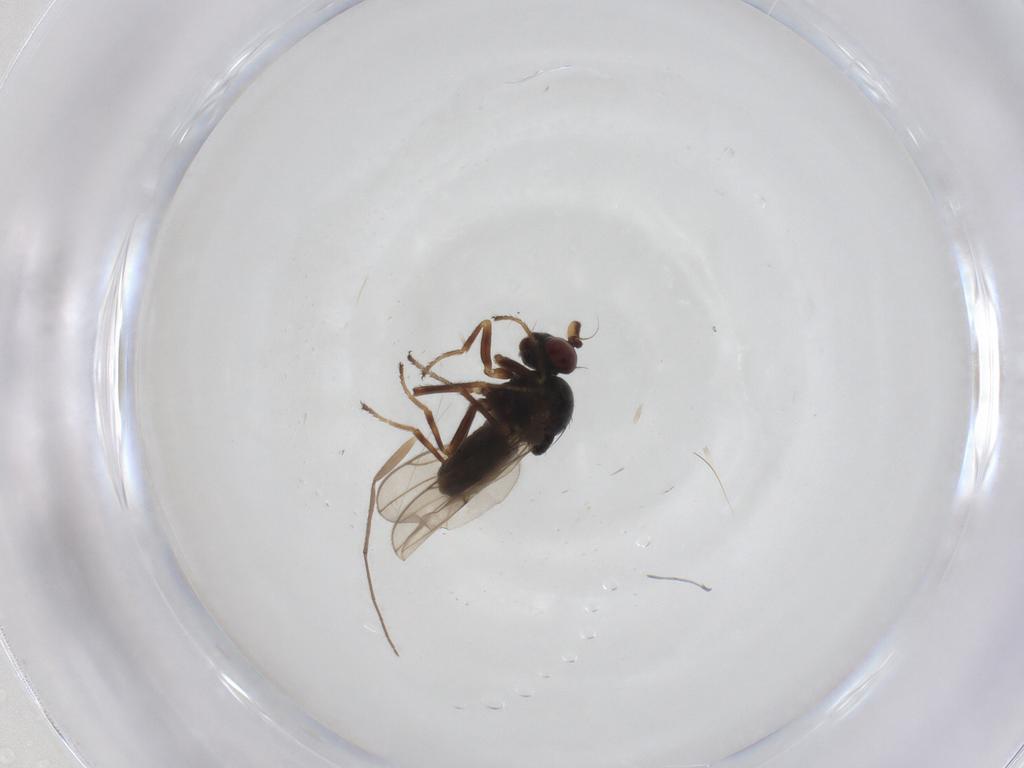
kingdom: Animalia
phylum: Arthropoda
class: Insecta
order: Diptera
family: Ephydridae
